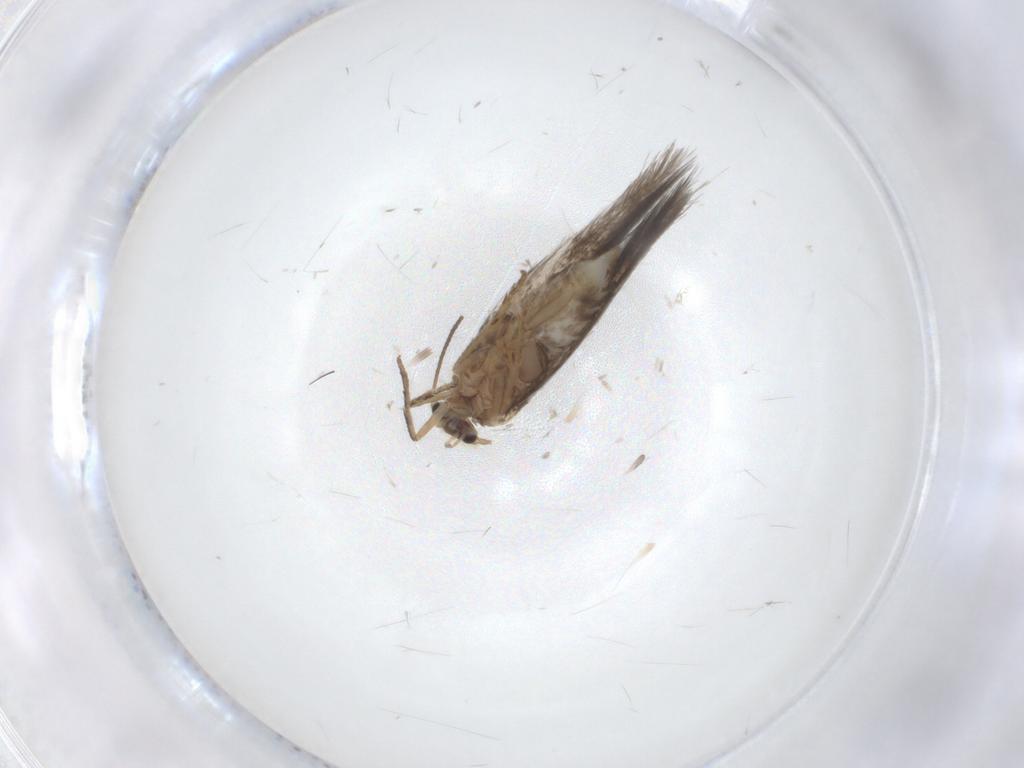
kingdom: Animalia
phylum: Arthropoda
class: Insecta
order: Lepidoptera
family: Nepticulidae
